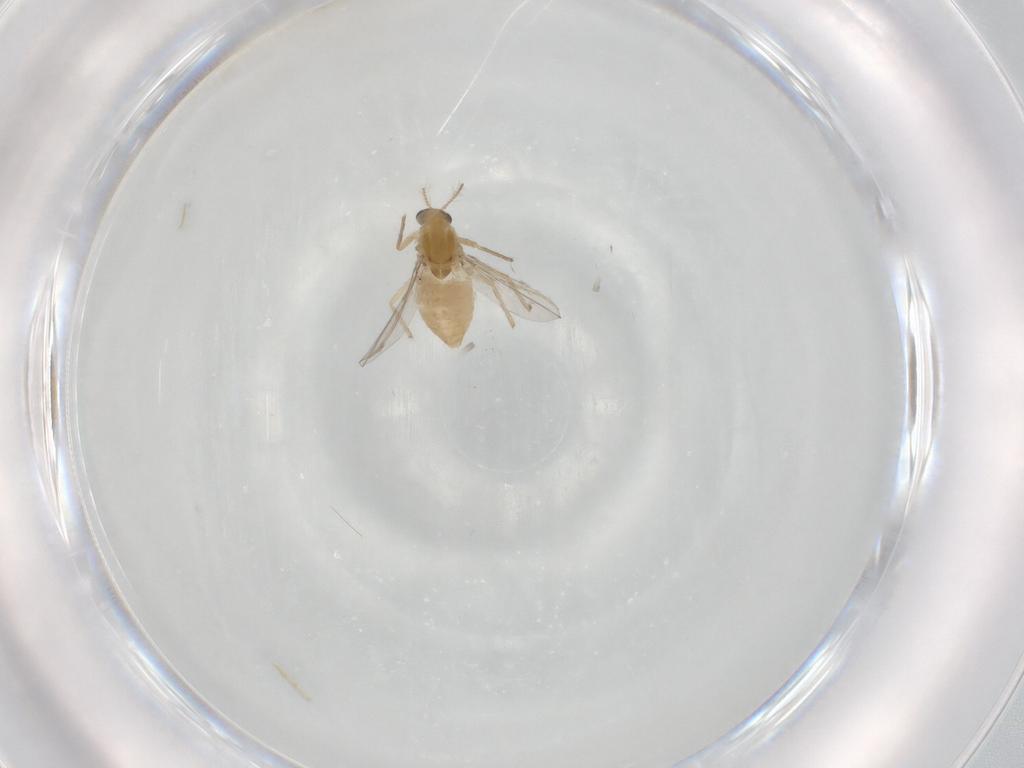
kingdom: Animalia
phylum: Arthropoda
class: Insecta
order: Diptera
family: Chironomidae
